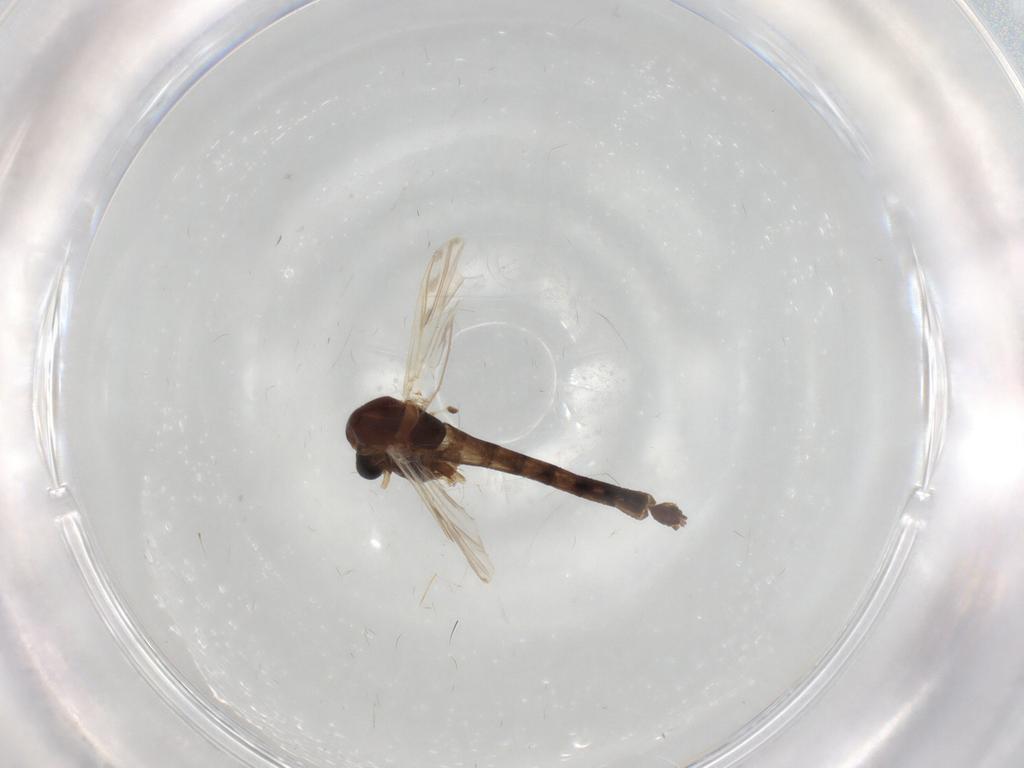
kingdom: Animalia
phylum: Arthropoda
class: Insecta
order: Diptera
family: Chironomidae
